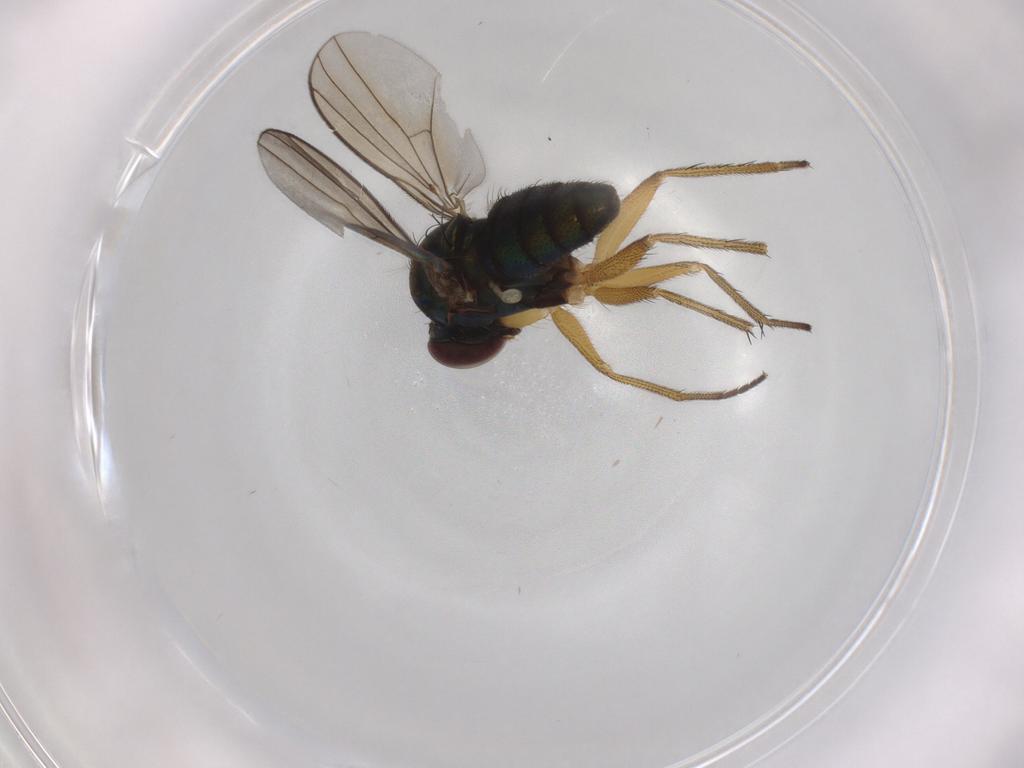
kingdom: Animalia
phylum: Arthropoda
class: Insecta
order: Diptera
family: Dolichopodidae
